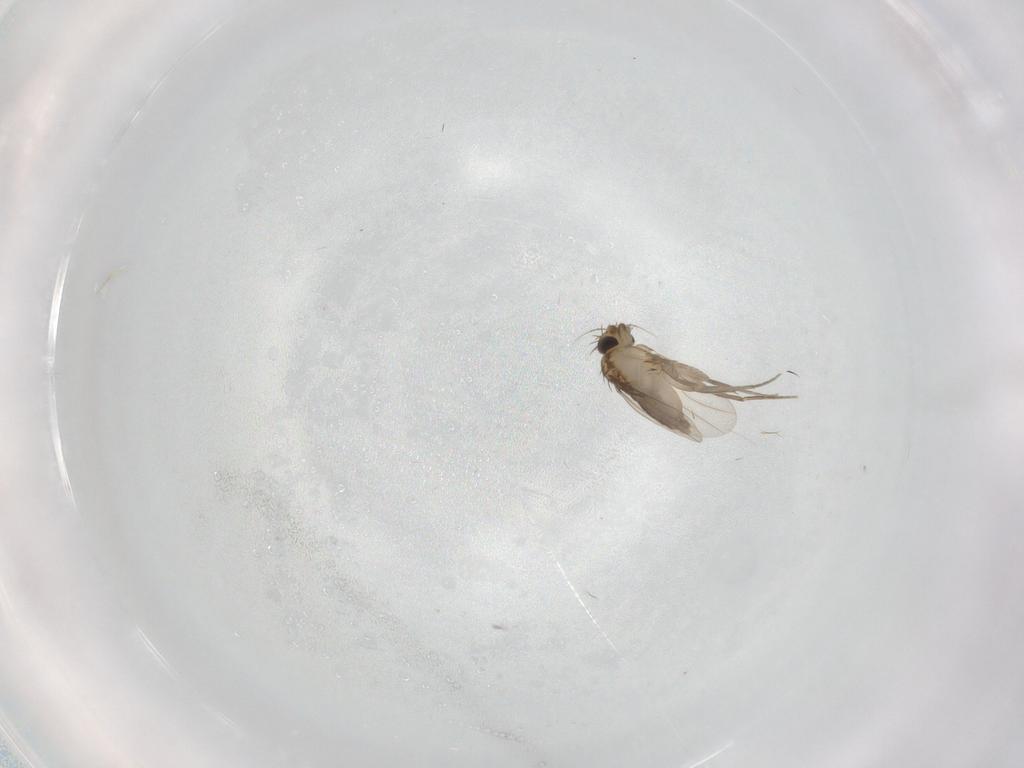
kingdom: Animalia
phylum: Arthropoda
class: Insecta
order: Diptera
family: Phoridae
